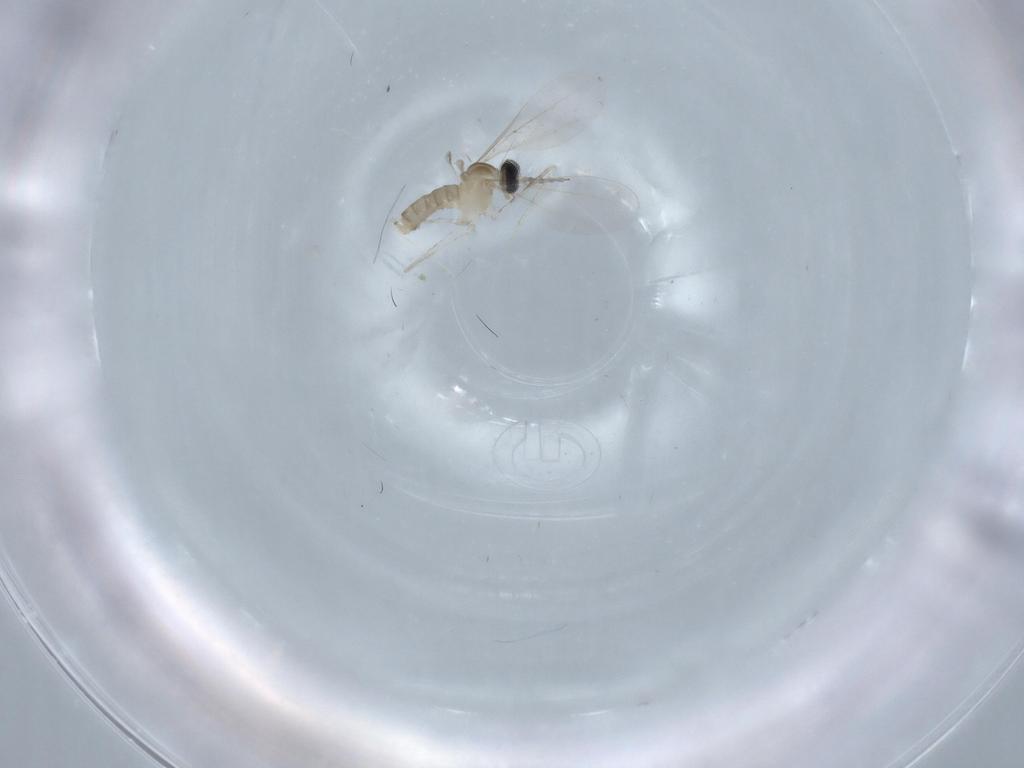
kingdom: Animalia
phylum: Arthropoda
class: Insecta
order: Diptera
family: Cecidomyiidae
